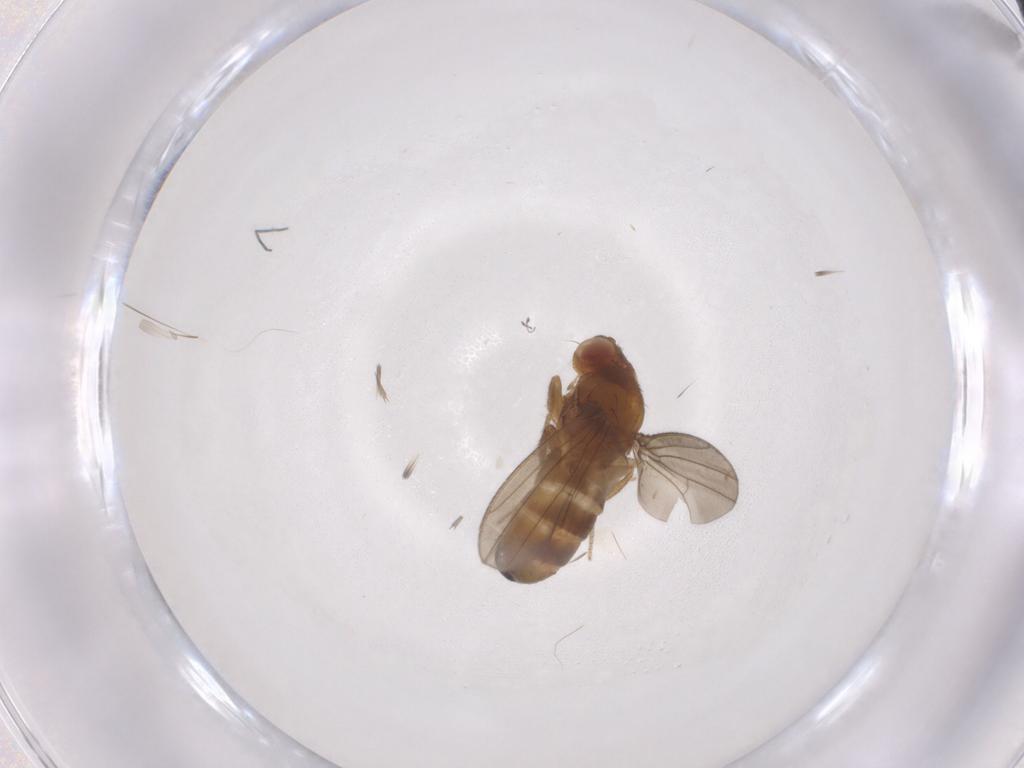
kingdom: Animalia
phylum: Arthropoda
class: Insecta
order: Diptera
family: Drosophilidae
